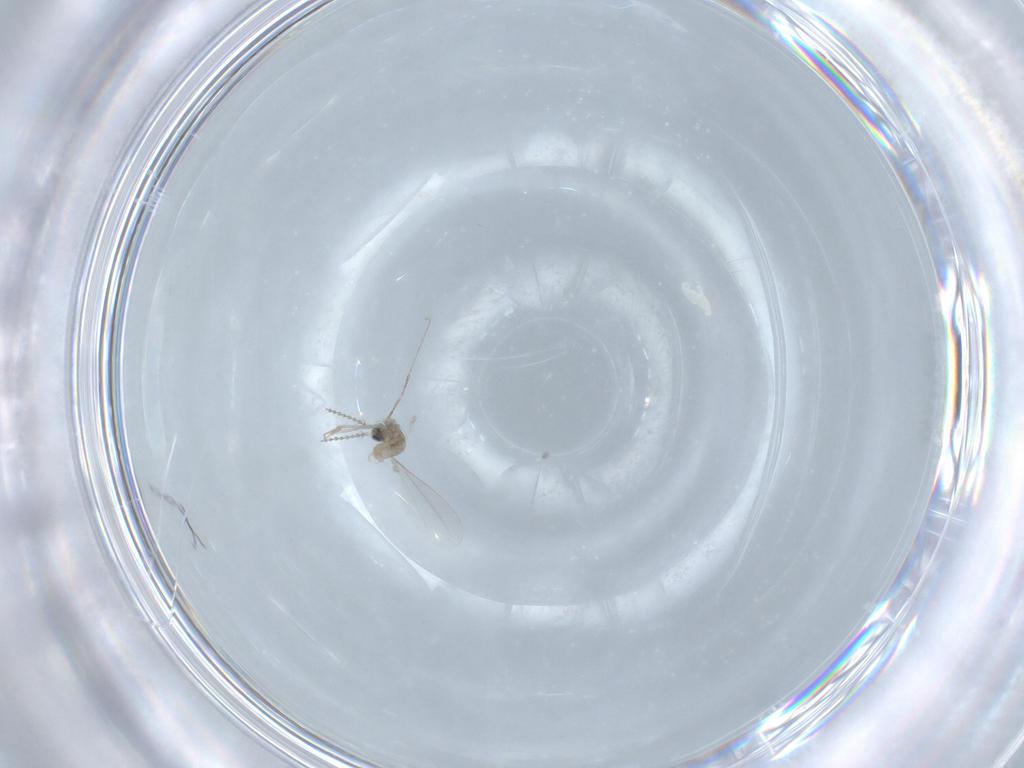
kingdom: Animalia
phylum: Arthropoda
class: Insecta
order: Diptera
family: Cecidomyiidae
